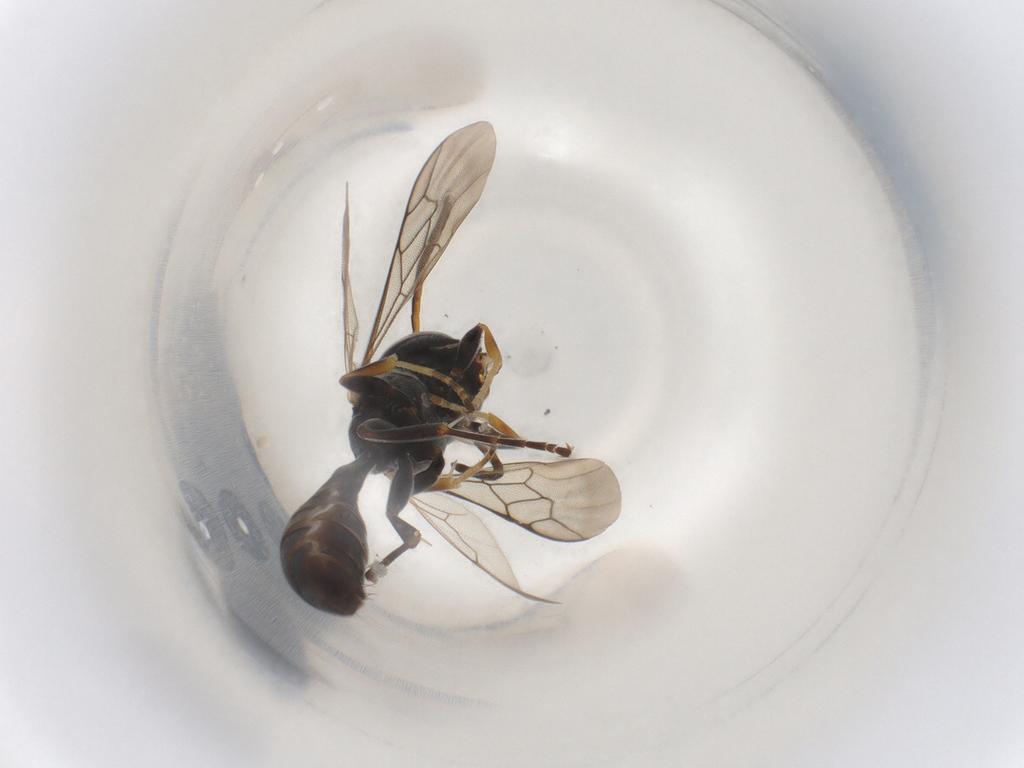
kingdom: Animalia
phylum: Arthropoda
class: Insecta
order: Hymenoptera
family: Crabronidae
